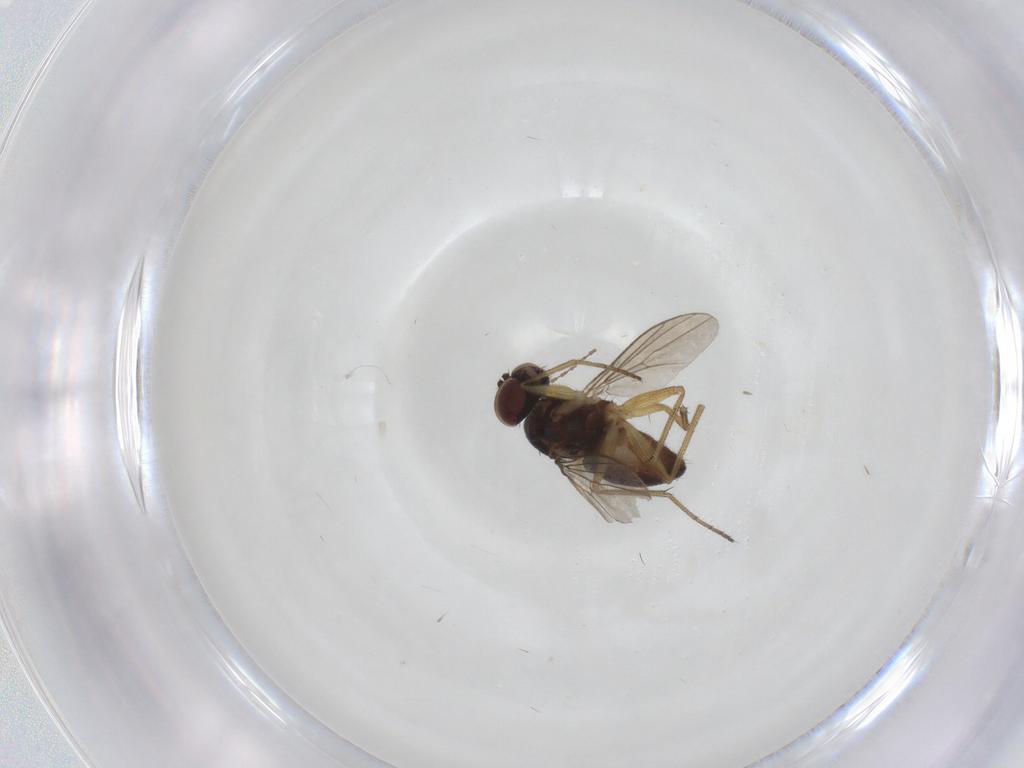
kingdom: Animalia
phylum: Arthropoda
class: Insecta
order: Diptera
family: Dolichopodidae
